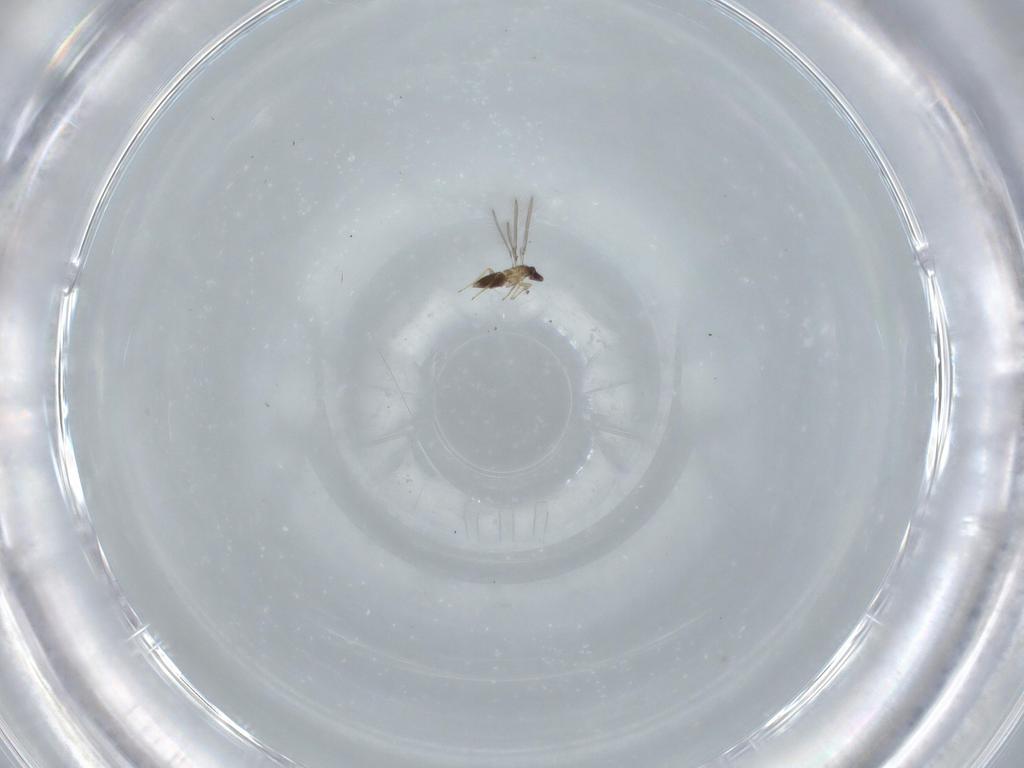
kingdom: Animalia
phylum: Arthropoda
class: Insecta
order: Hymenoptera
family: Mymaridae
